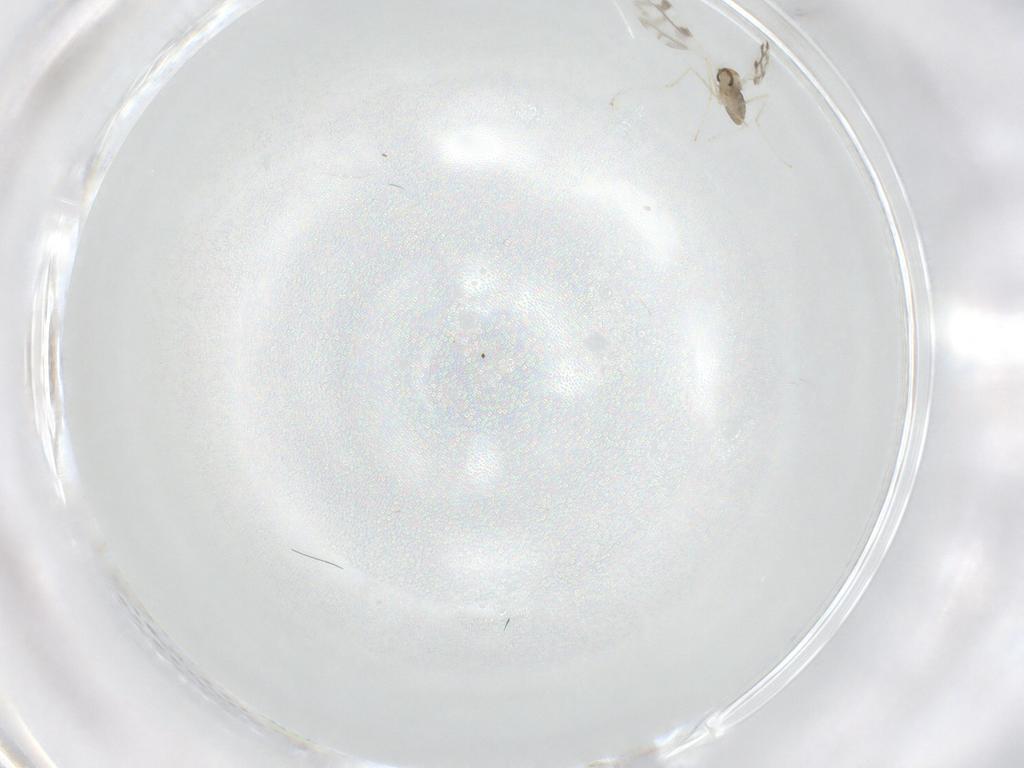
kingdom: Animalia
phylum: Arthropoda
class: Insecta
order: Diptera
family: Cecidomyiidae
